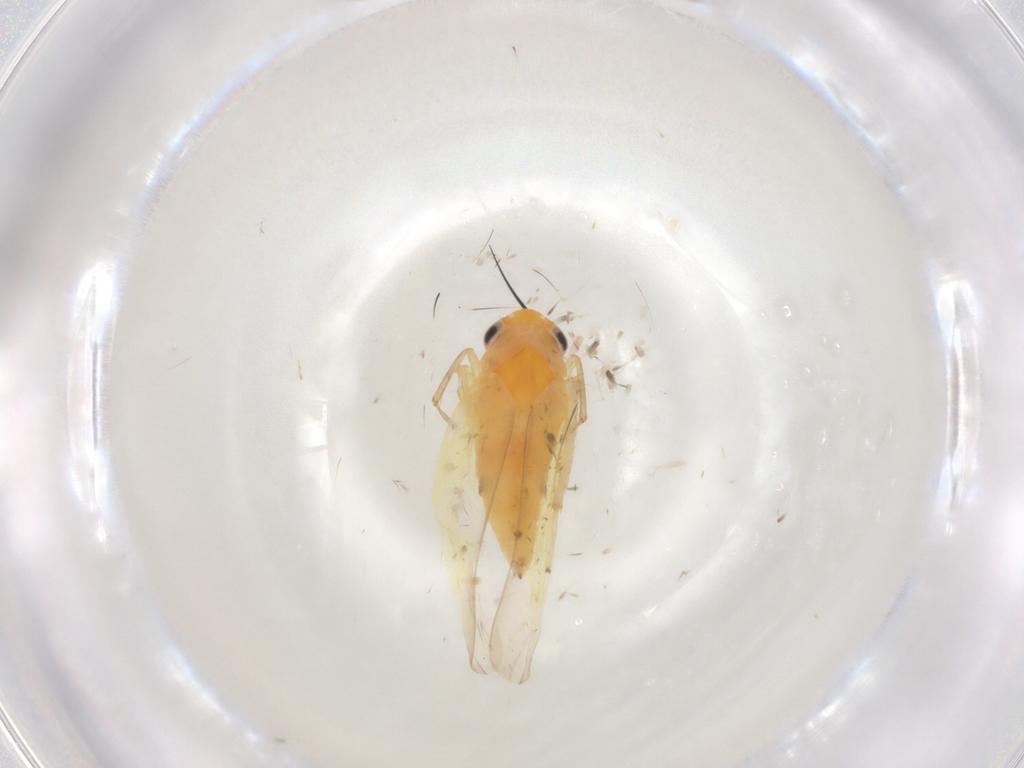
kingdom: Animalia
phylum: Arthropoda
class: Insecta
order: Hemiptera
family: Cicadellidae
